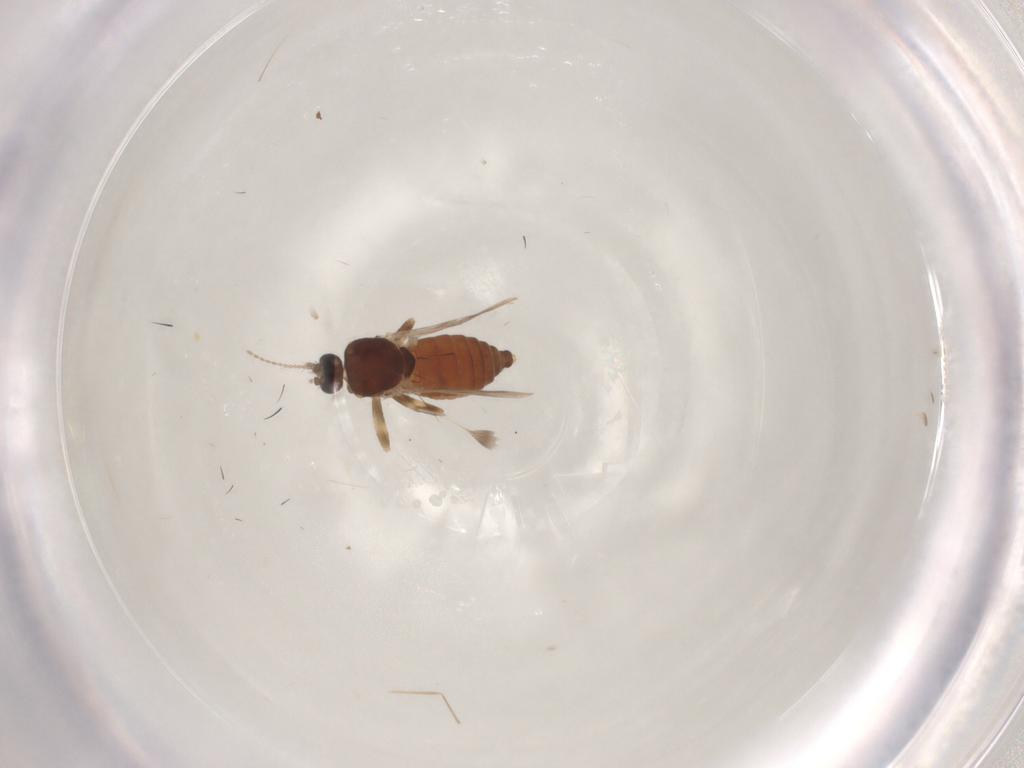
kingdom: Animalia
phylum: Arthropoda
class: Insecta
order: Diptera
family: Ceratopogonidae
